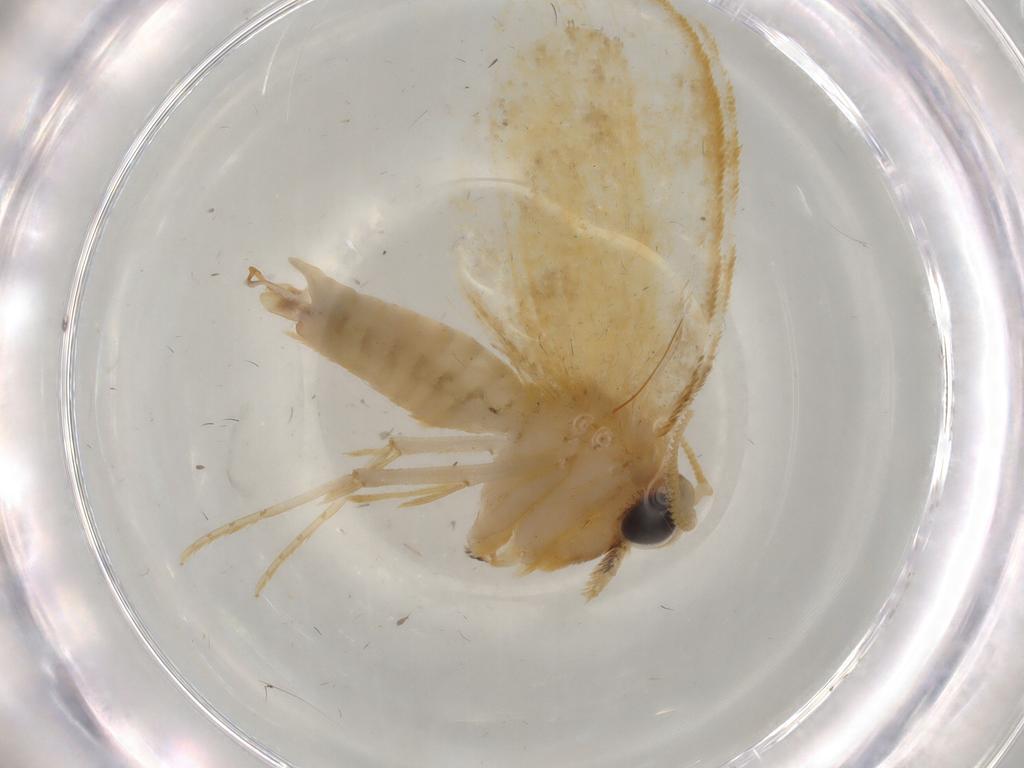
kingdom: Animalia
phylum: Arthropoda
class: Insecta
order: Lepidoptera
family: Psychidae
